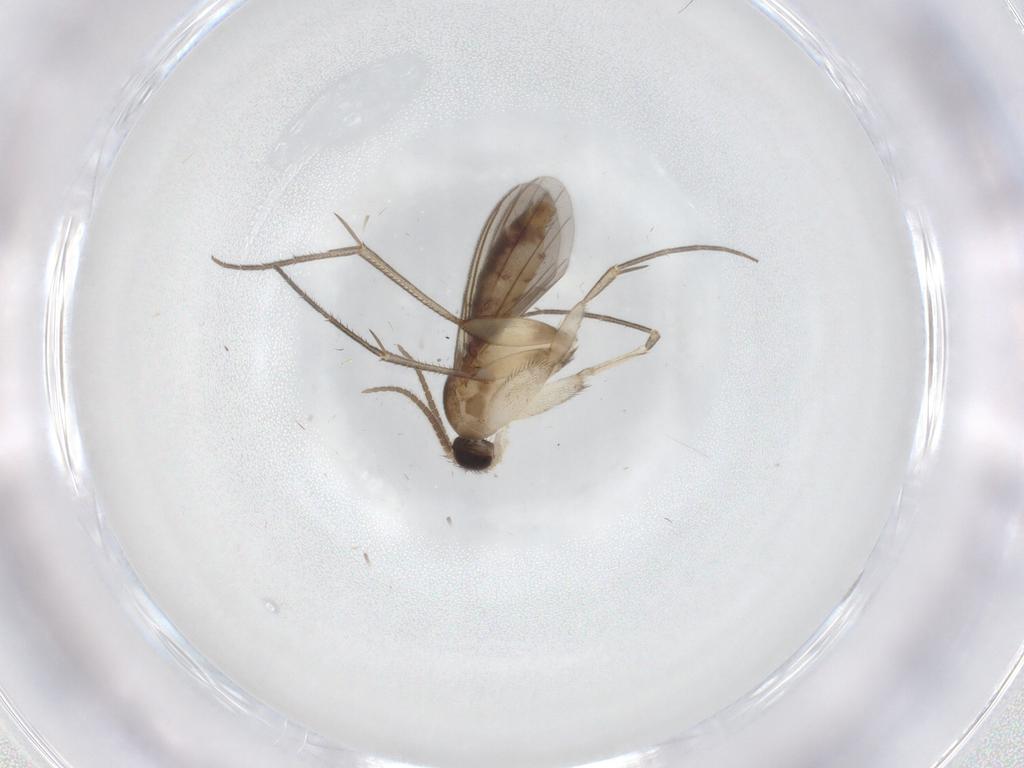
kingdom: Animalia
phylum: Arthropoda
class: Insecta
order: Diptera
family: Mycetophilidae
